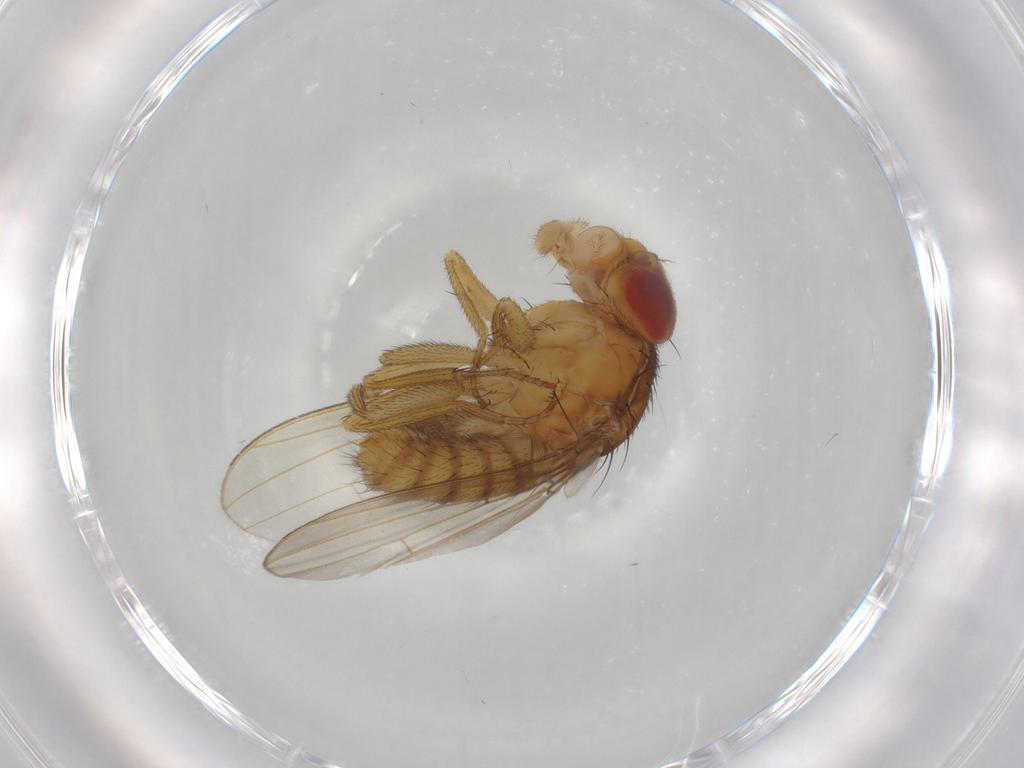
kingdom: Animalia
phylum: Arthropoda
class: Insecta
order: Diptera
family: Drosophilidae
